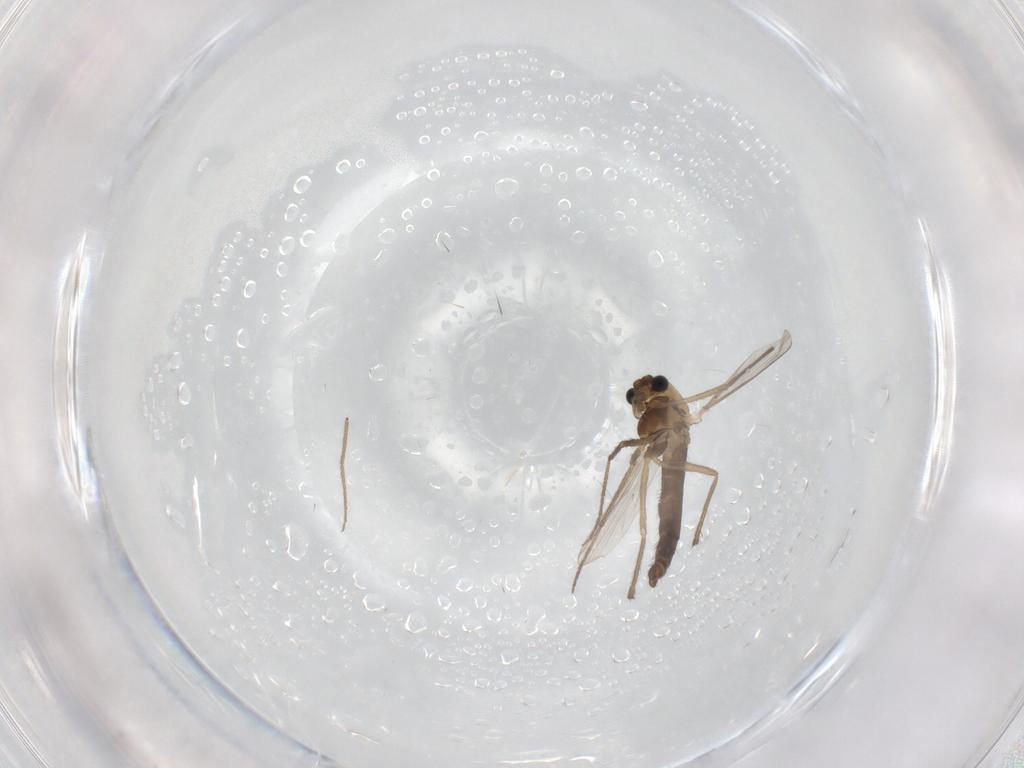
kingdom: Animalia
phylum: Arthropoda
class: Insecta
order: Diptera
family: Chironomidae
